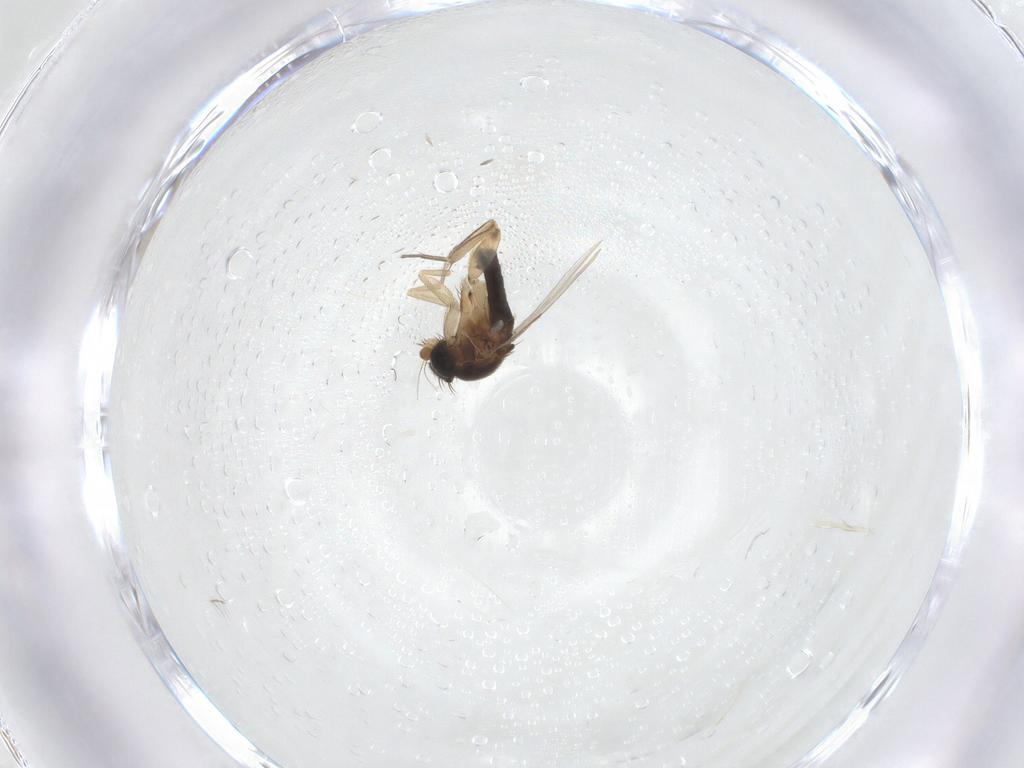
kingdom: Animalia
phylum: Arthropoda
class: Insecta
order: Diptera
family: Phoridae
